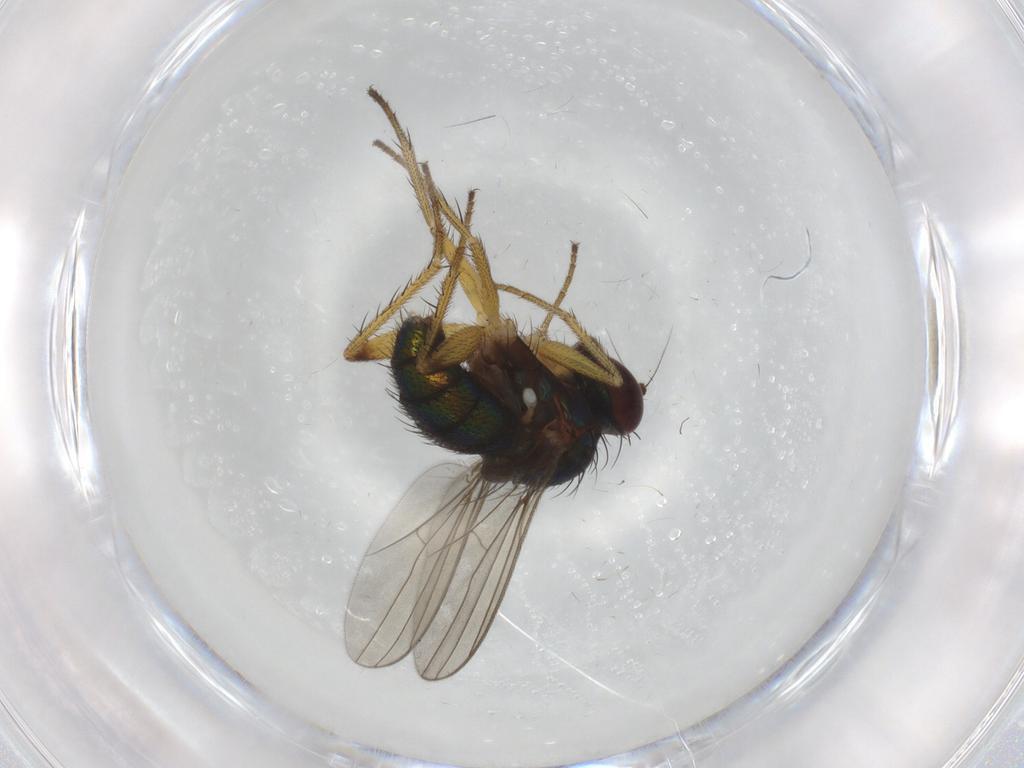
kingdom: Animalia
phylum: Arthropoda
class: Insecta
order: Diptera
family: Dolichopodidae
